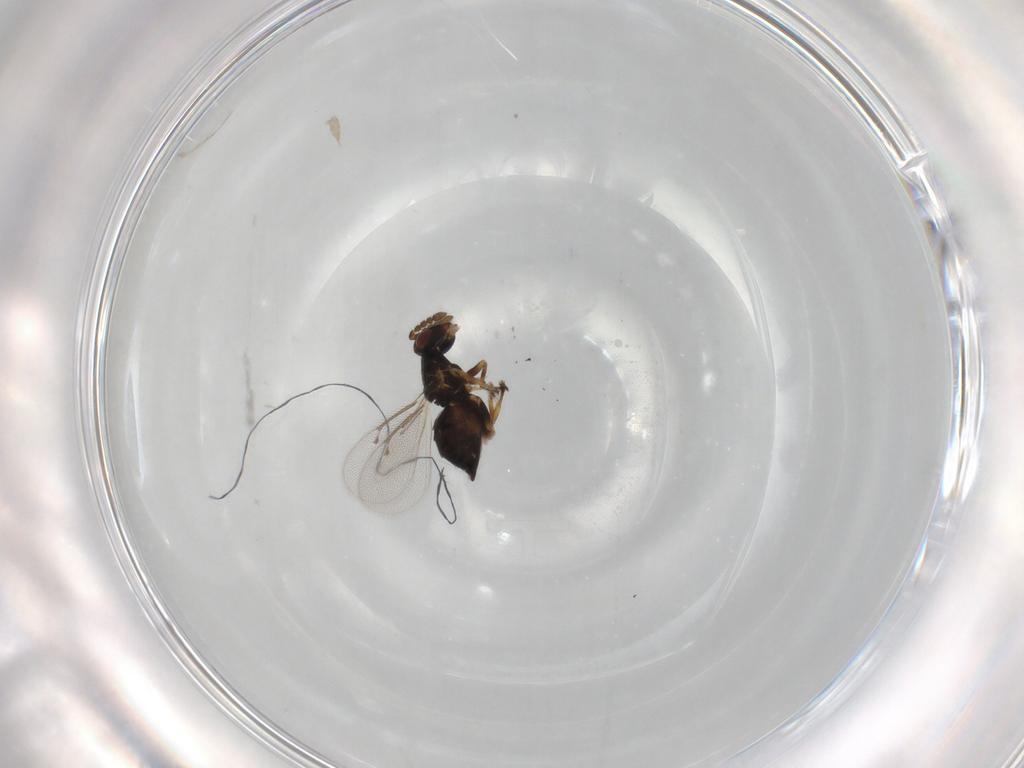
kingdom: Animalia
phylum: Arthropoda
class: Insecta
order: Hymenoptera
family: Eulophidae
